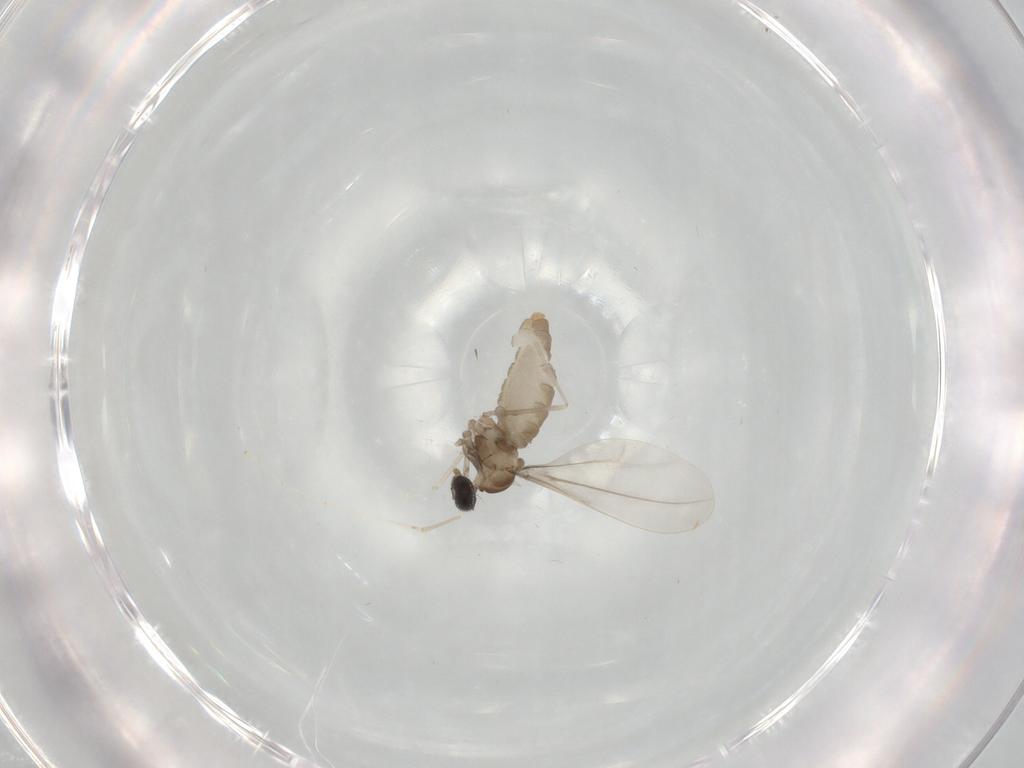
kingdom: Animalia
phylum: Arthropoda
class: Insecta
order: Diptera
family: Cecidomyiidae
